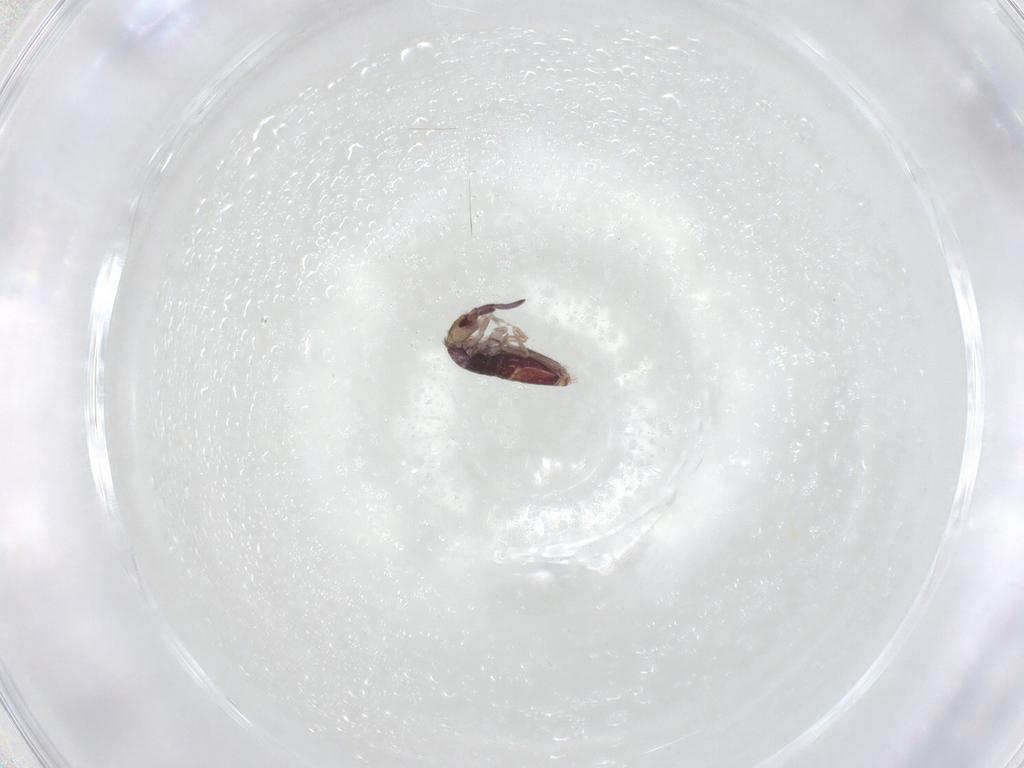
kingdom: Animalia
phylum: Arthropoda
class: Collembola
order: Entomobryomorpha
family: Entomobryidae
